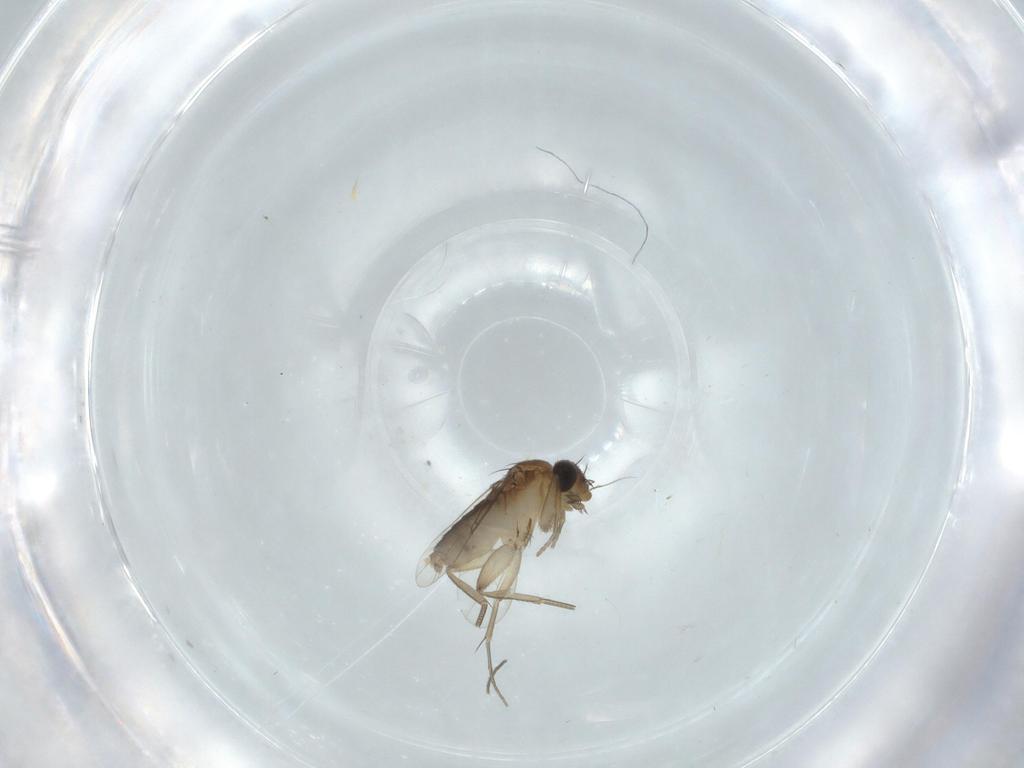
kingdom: Animalia
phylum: Arthropoda
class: Insecta
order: Diptera
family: Phoridae
